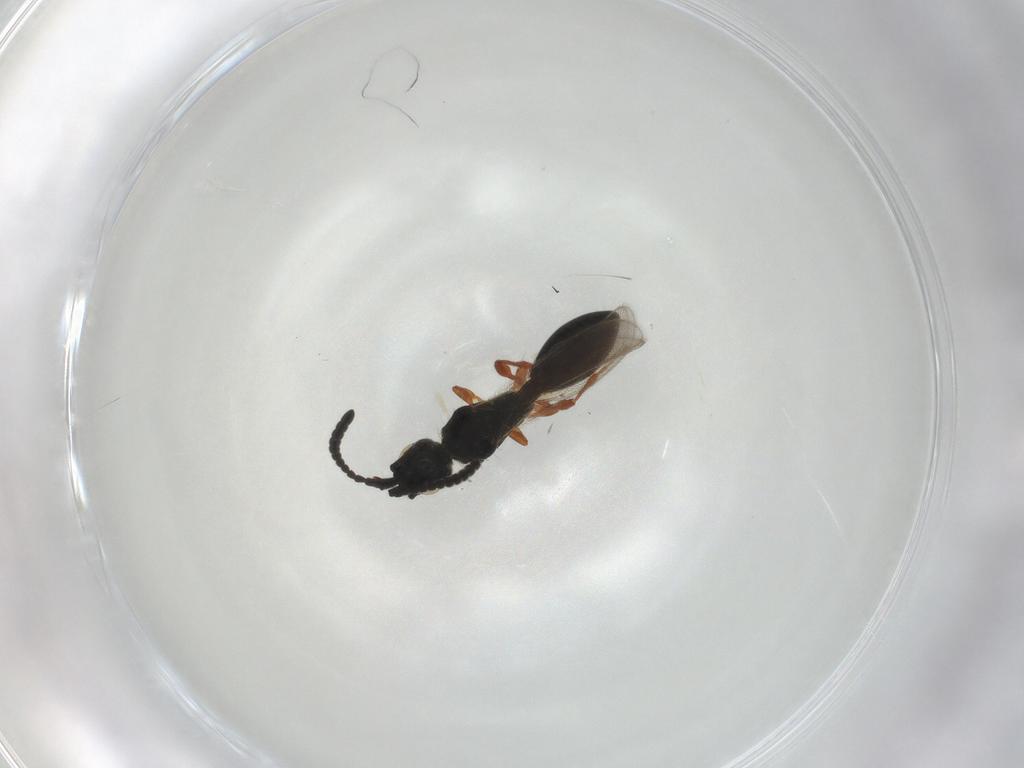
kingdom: Animalia
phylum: Arthropoda
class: Insecta
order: Hymenoptera
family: Diapriidae
